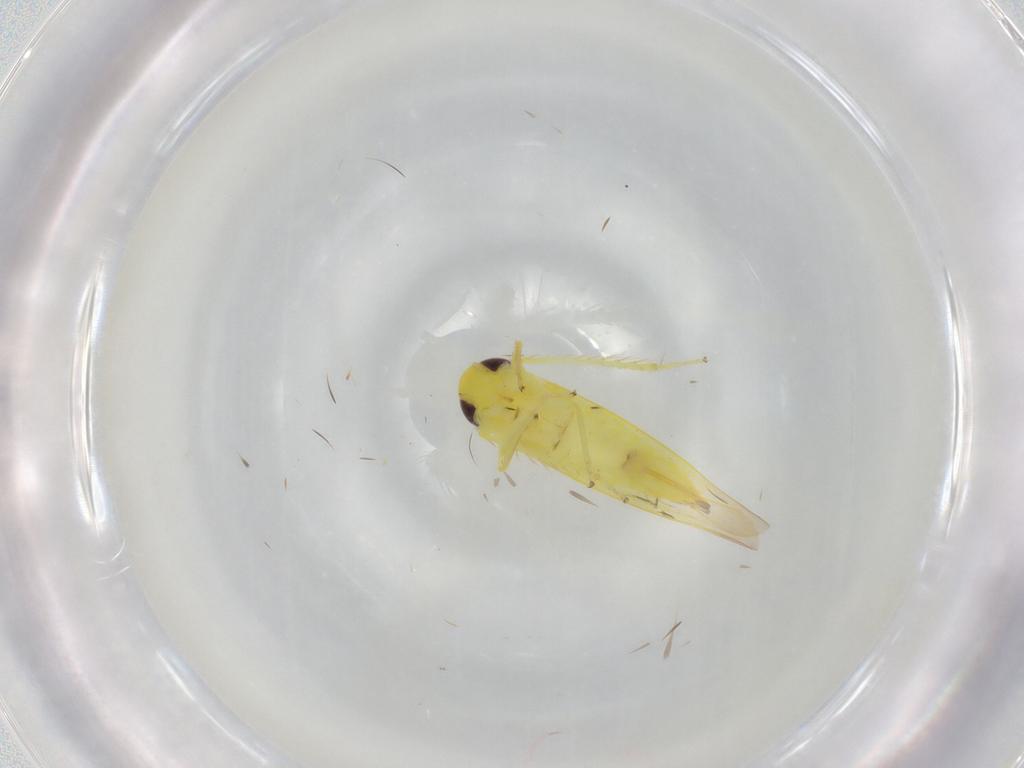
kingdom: Animalia
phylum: Arthropoda
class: Insecta
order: Hemiptera
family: Cicadellidae
